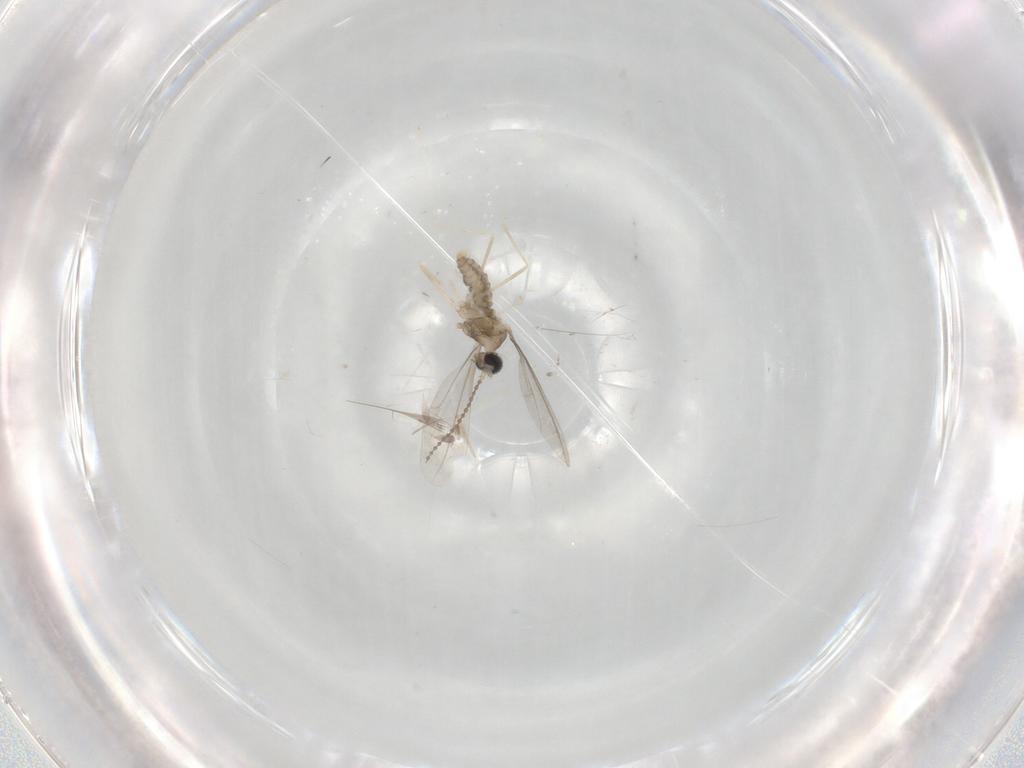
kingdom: Animalia
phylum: Arthropoda
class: Insecta
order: Diptera
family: Cecidomyiidae
